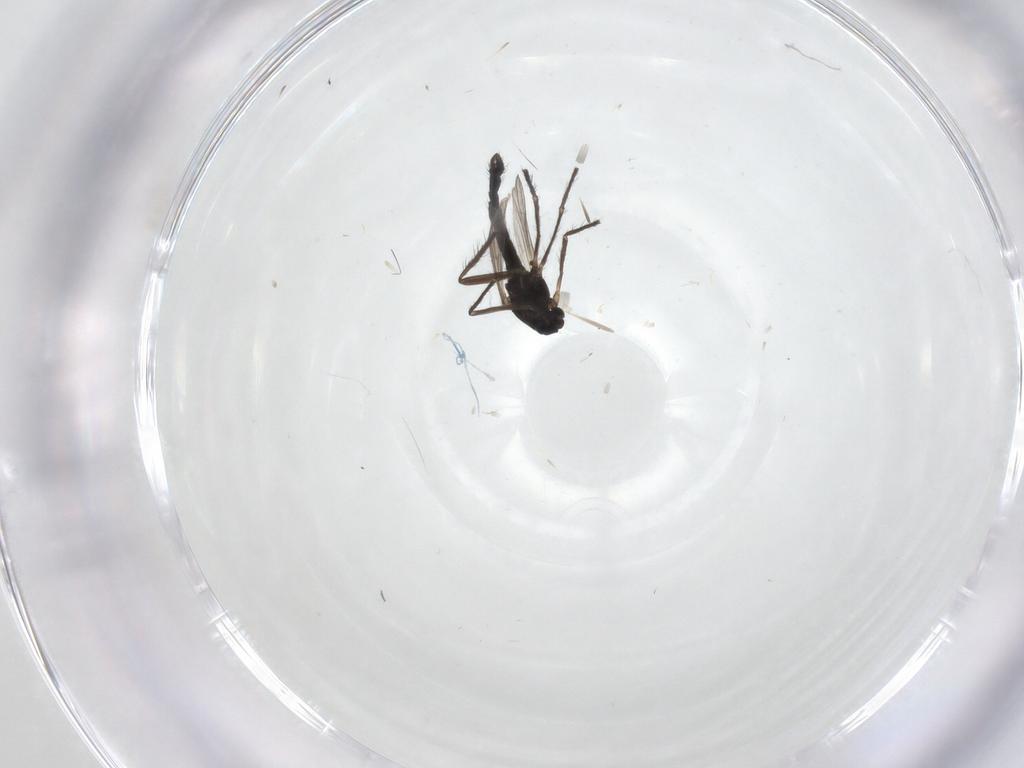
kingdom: Animalia
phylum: Arthropoda
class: Insecta
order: Diptera
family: Chironomidae
